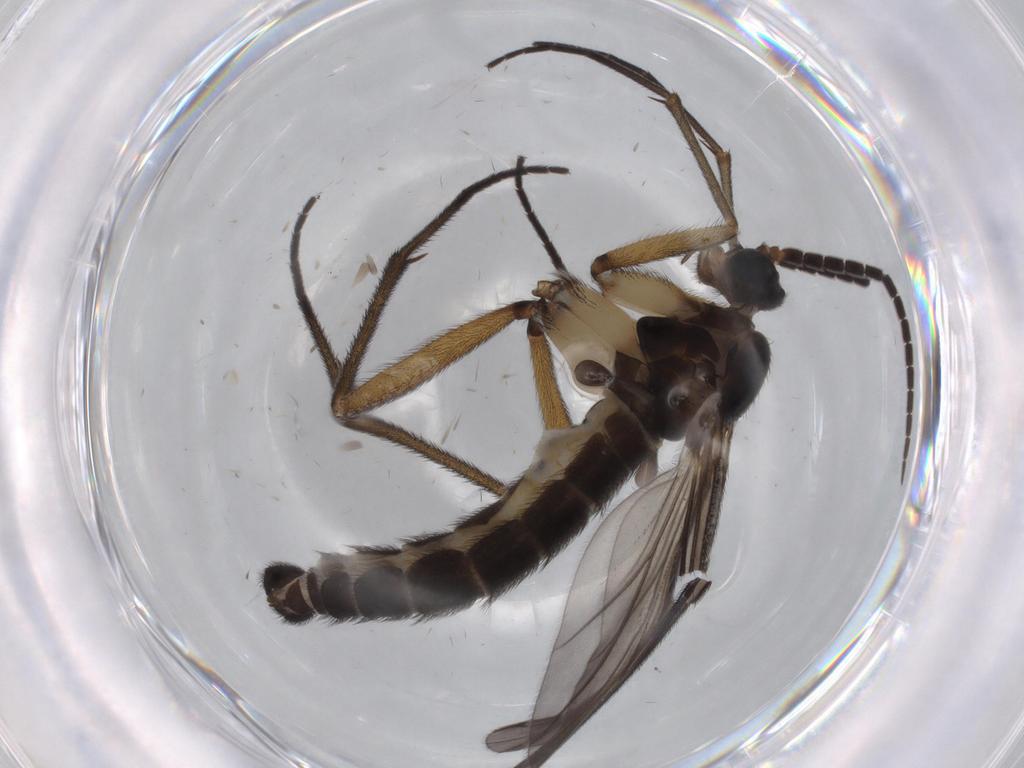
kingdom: Animalia
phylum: Arthropoda
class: Insecta
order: Diptera
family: Sciaridae
